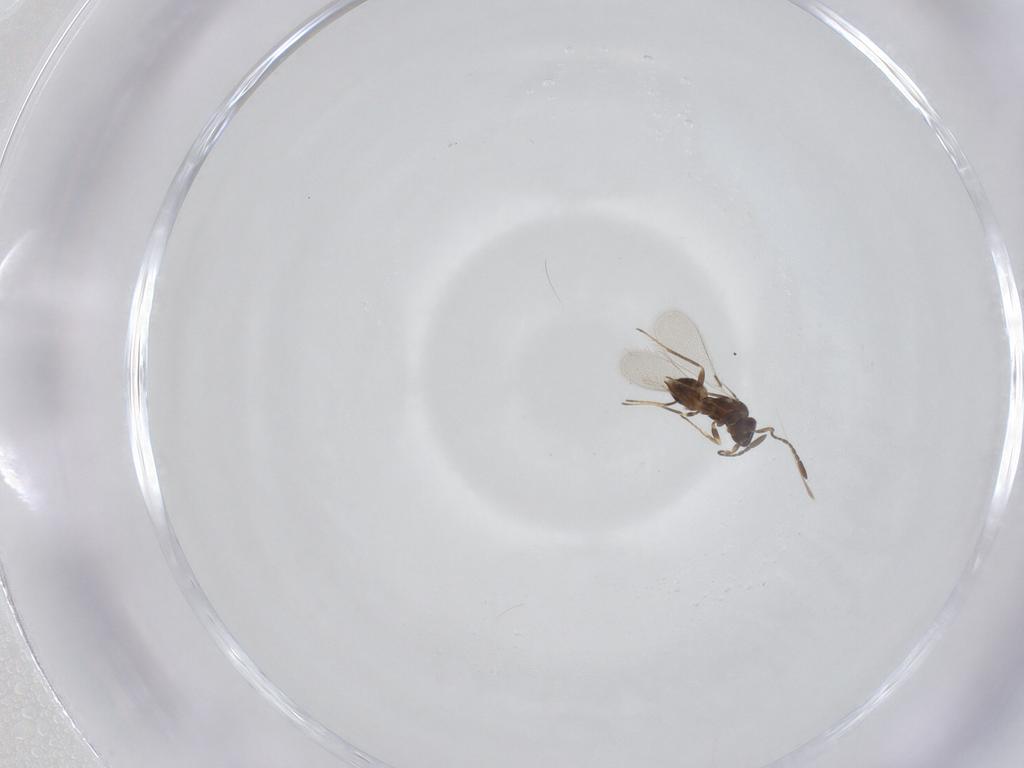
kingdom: Animalia
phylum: Arthropoda
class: Insecta
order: Hymenoptera
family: Mymaridae
